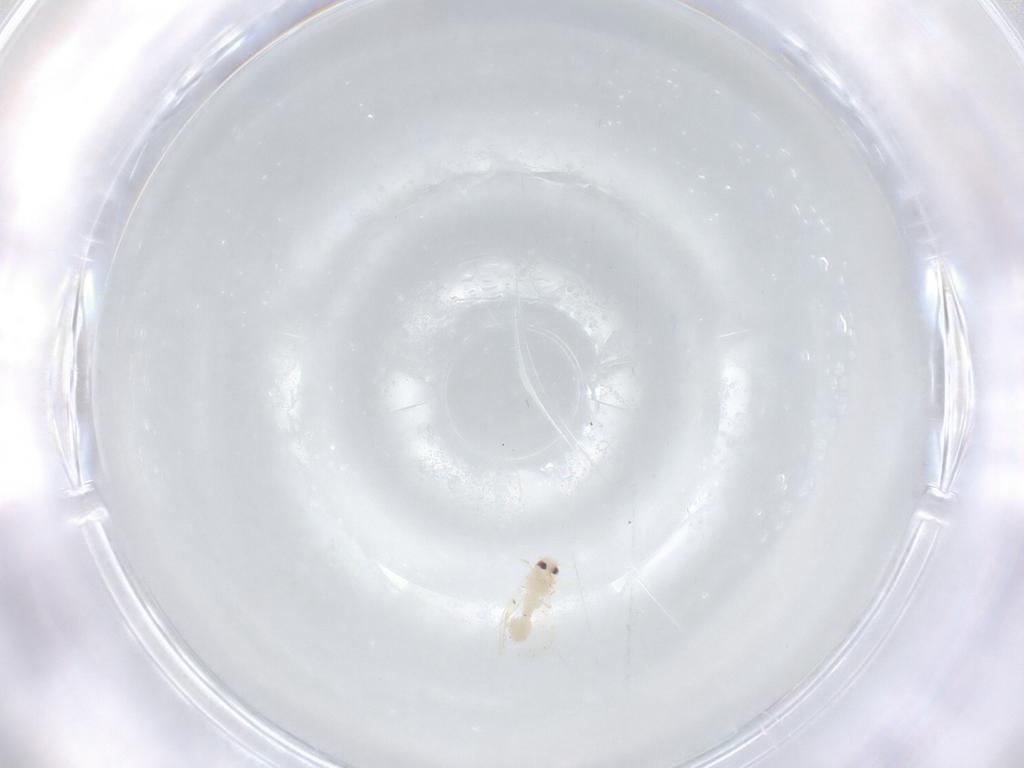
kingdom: Animalia
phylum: Arthropoda
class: Insecta
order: Hemiptera
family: Aleyrodidae
